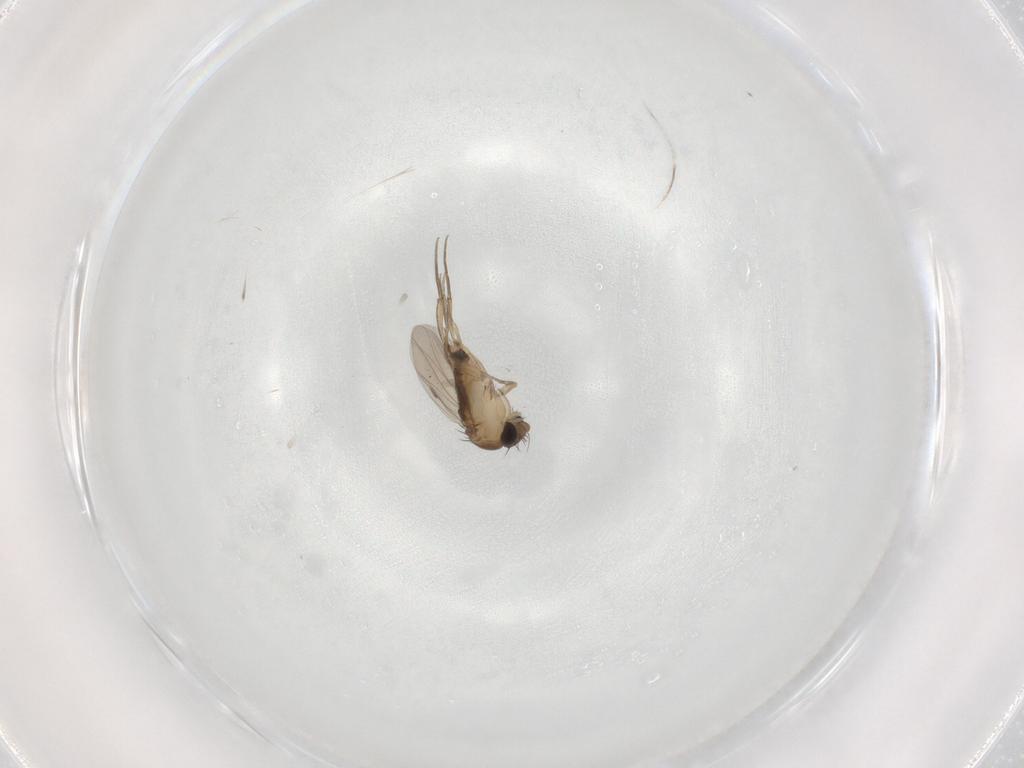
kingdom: Animalia
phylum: Arthropoda
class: Insecta
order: Diptera
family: Phoridae
